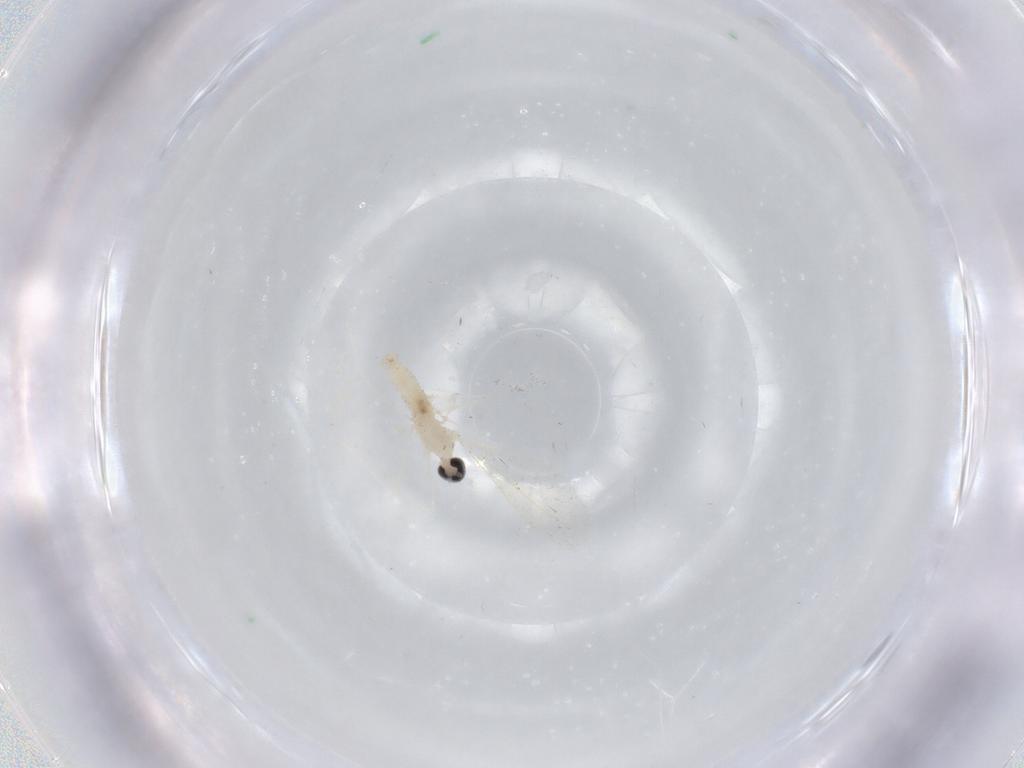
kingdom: Animalia
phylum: Arthropoda
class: Insecta
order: Diptera
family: Cecidomyiidae
